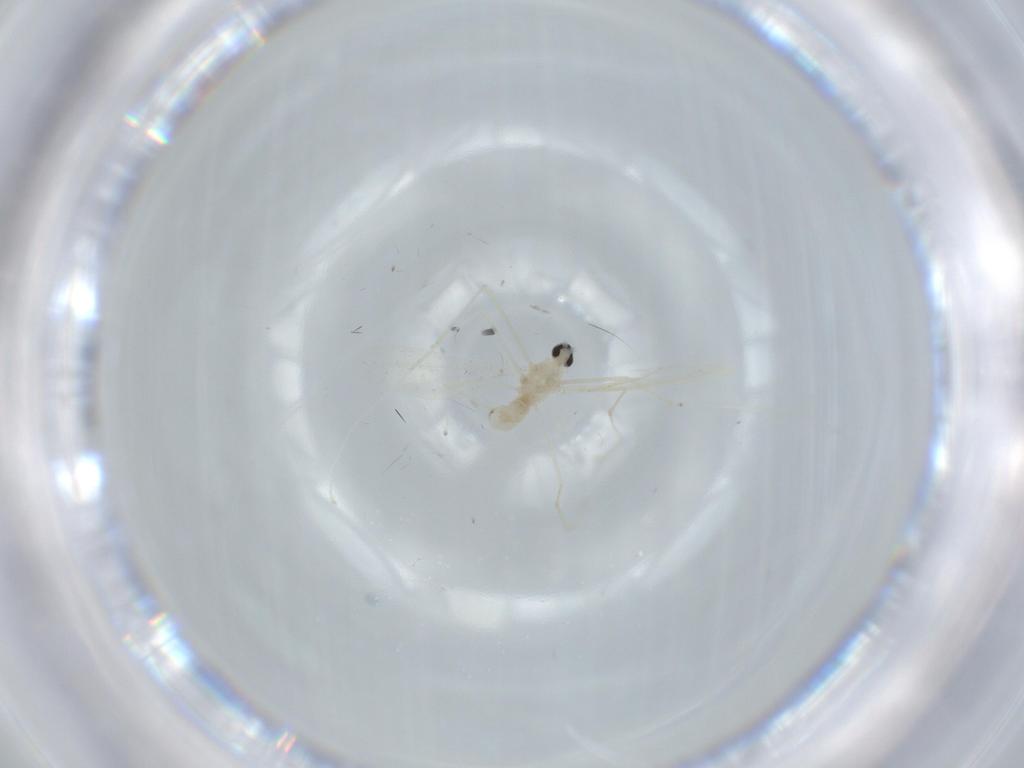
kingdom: Animalia
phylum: Arthropoda
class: Insecta
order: Diptera
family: Cecidomyiidae
